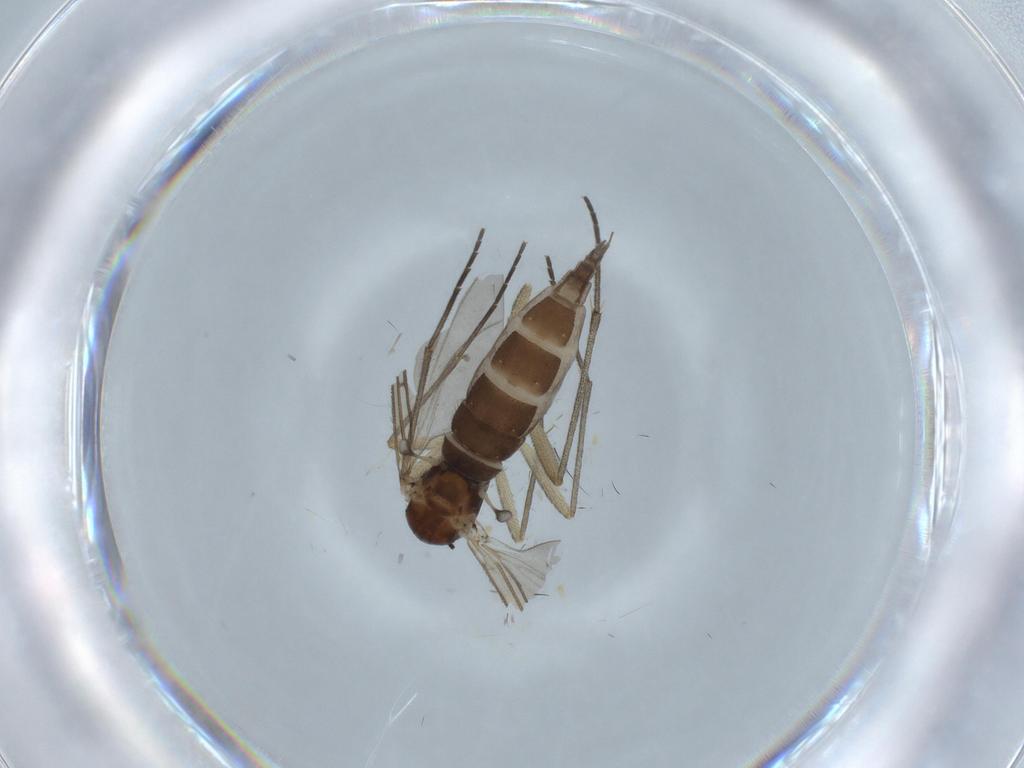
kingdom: Animalia
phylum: Arthropoda
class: Insecta
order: Diptera
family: Sciaridae
